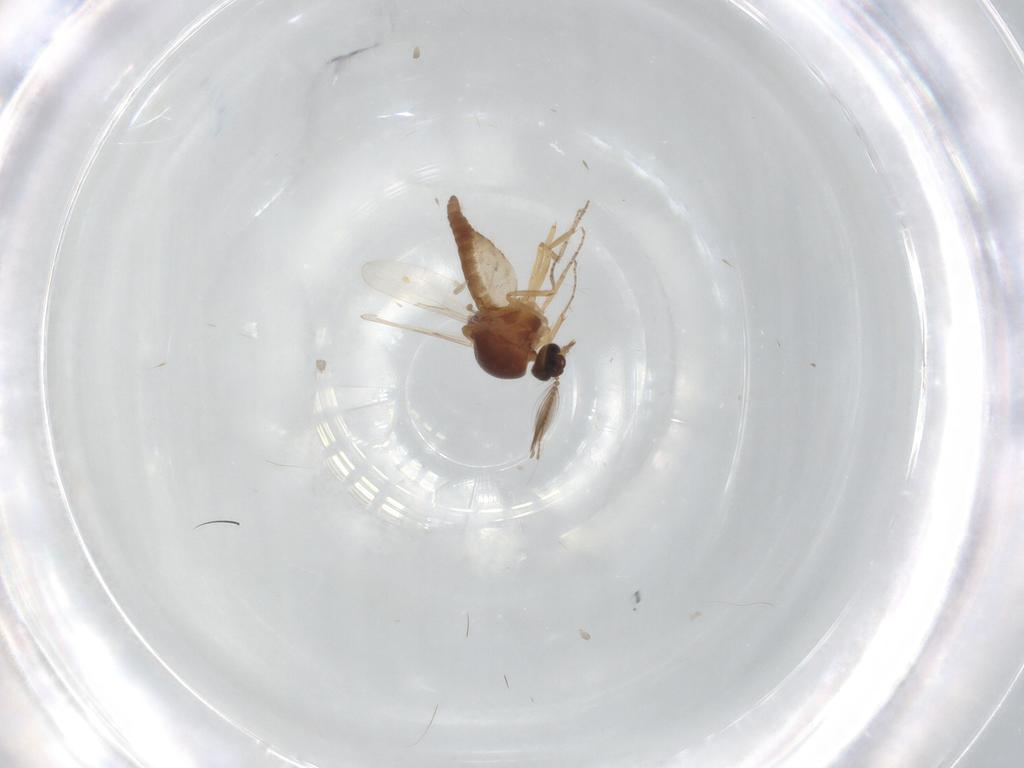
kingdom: Animalia
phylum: Arthropoda
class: Insecta
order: Diptera
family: Ceratopogonidae
